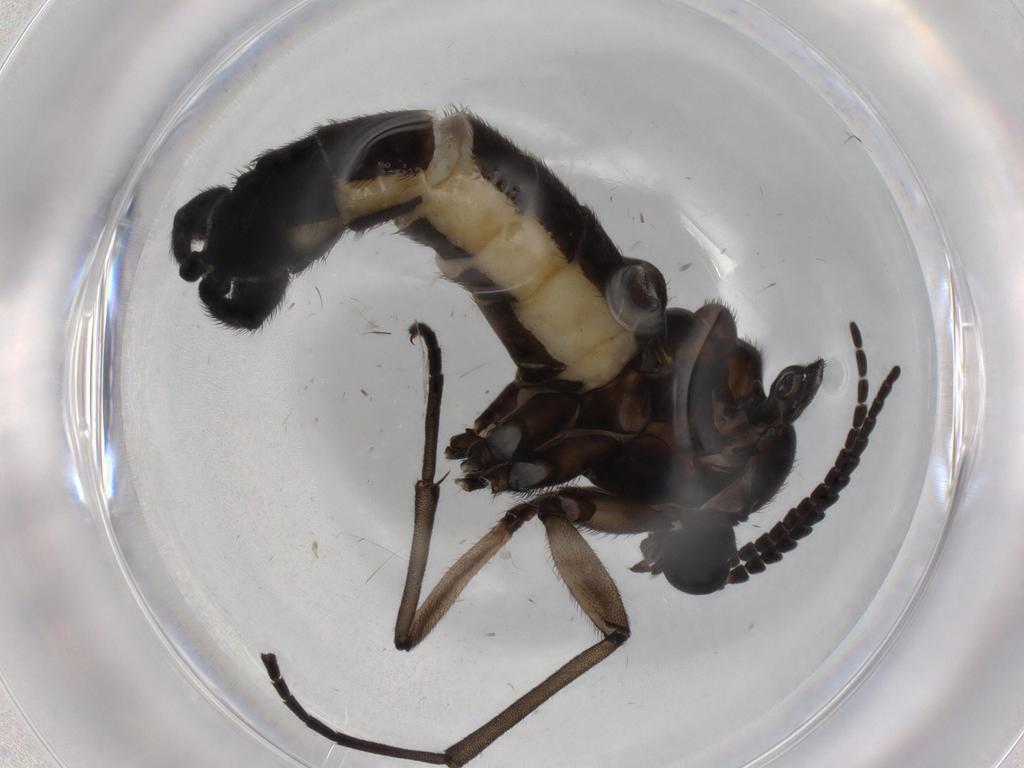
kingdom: Animalia
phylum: Arthropoda
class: Insecta
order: Diptera
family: Sciaridae
